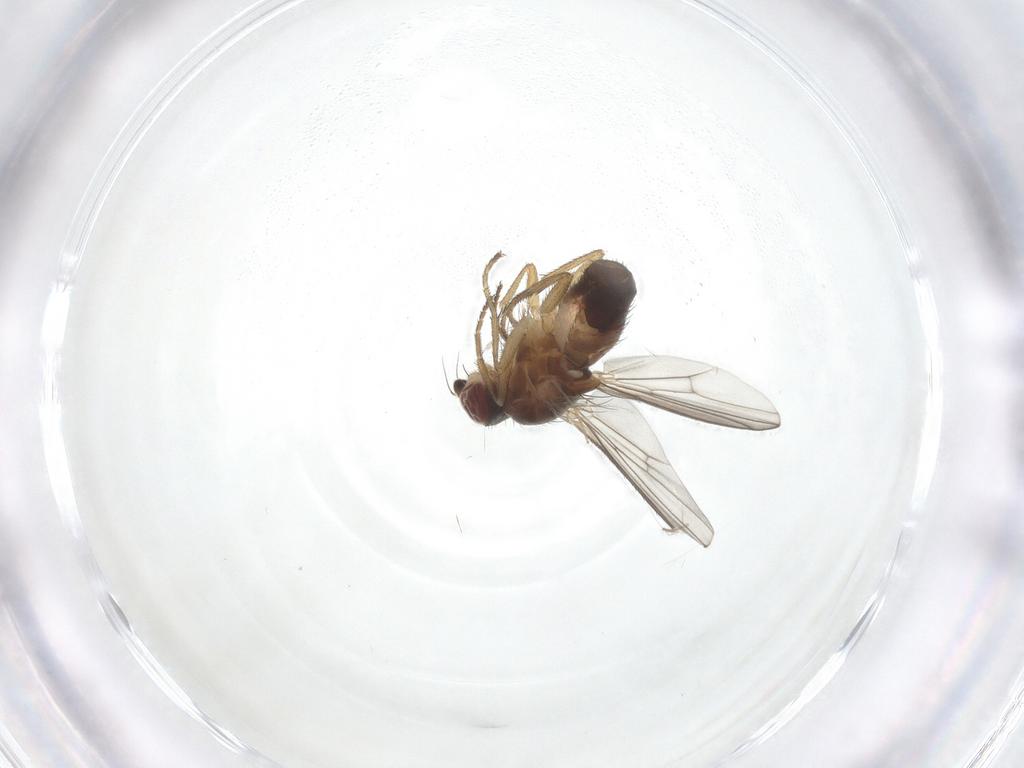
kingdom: Animalia
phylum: Arthropoda
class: Insecta
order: Diptera
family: Heleomyzidae
